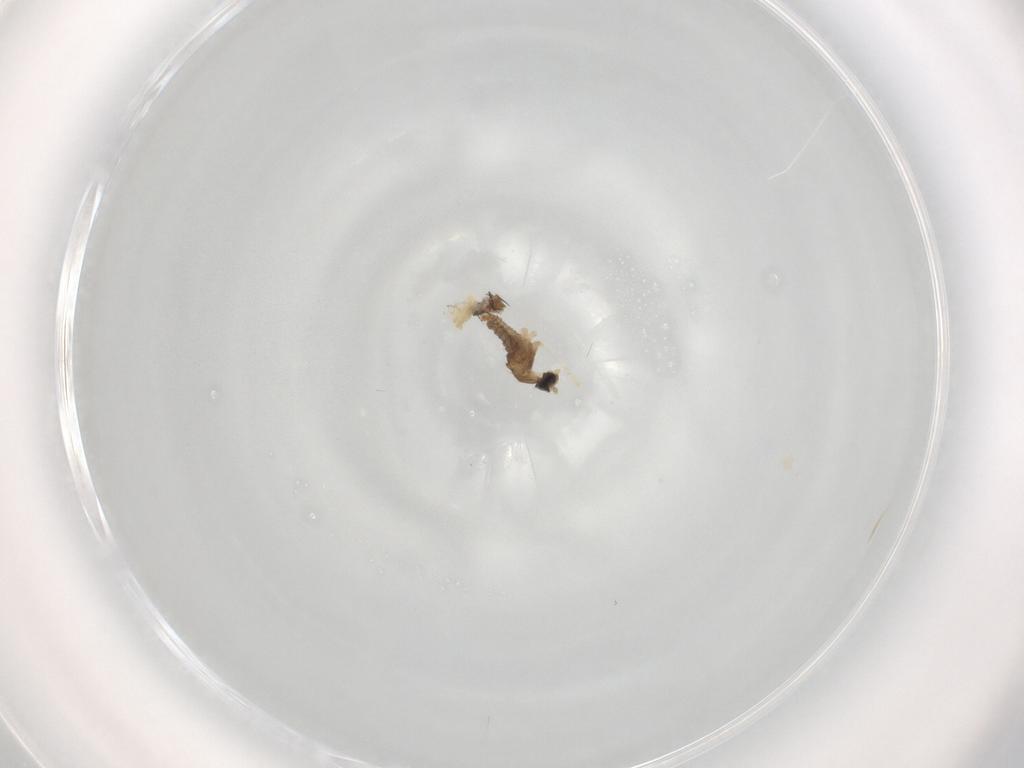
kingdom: Animalia
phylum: Arthropoda
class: Insecta
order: Diptera
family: Cecidomyiidae
